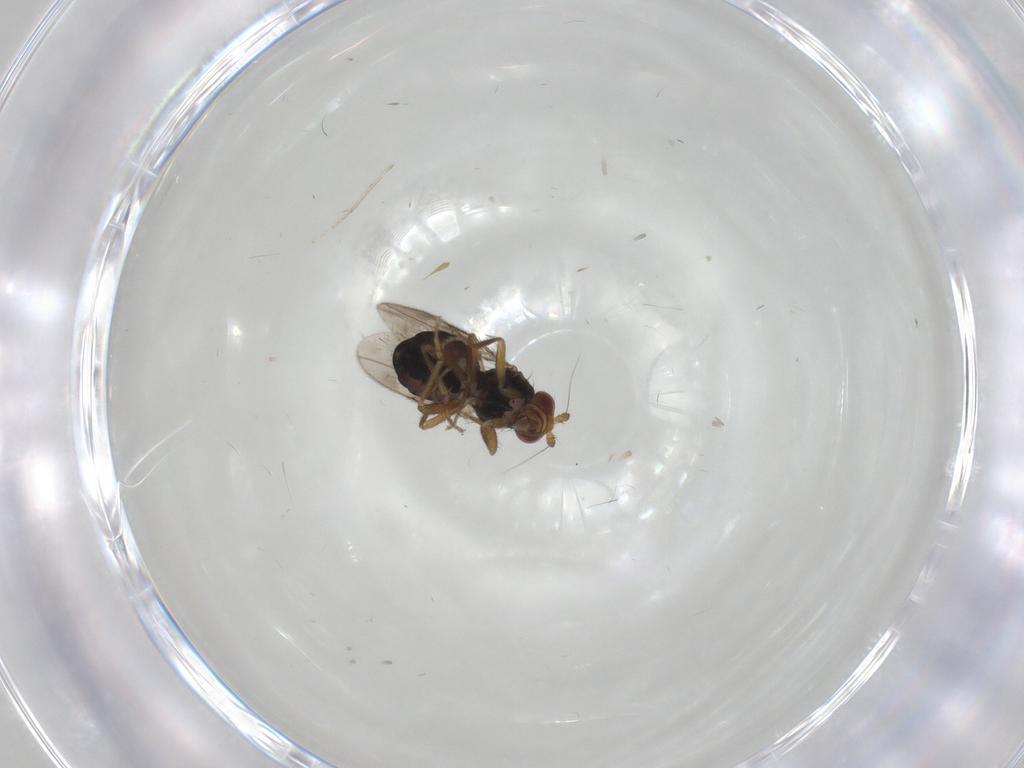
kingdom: Animalia
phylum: Arthropoda
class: Insecta
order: Diptera
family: Sphaeroceridae
